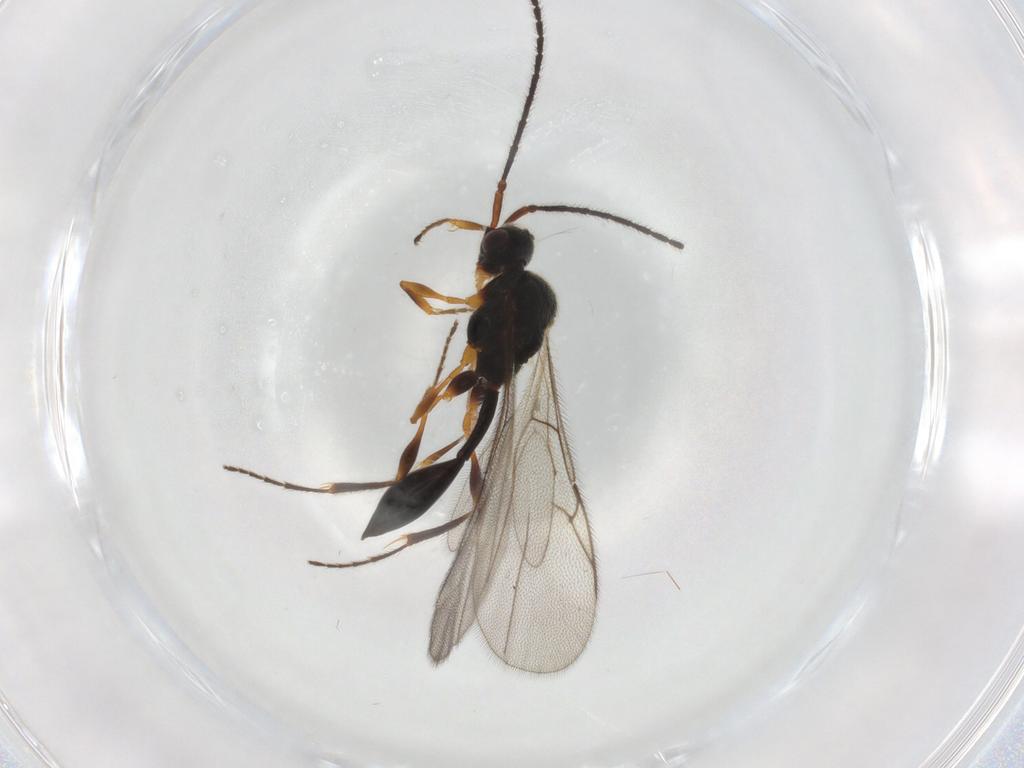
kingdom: Animalia
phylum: Arthropoda
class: Insecta
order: Hymenoptera
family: Diapriidae
